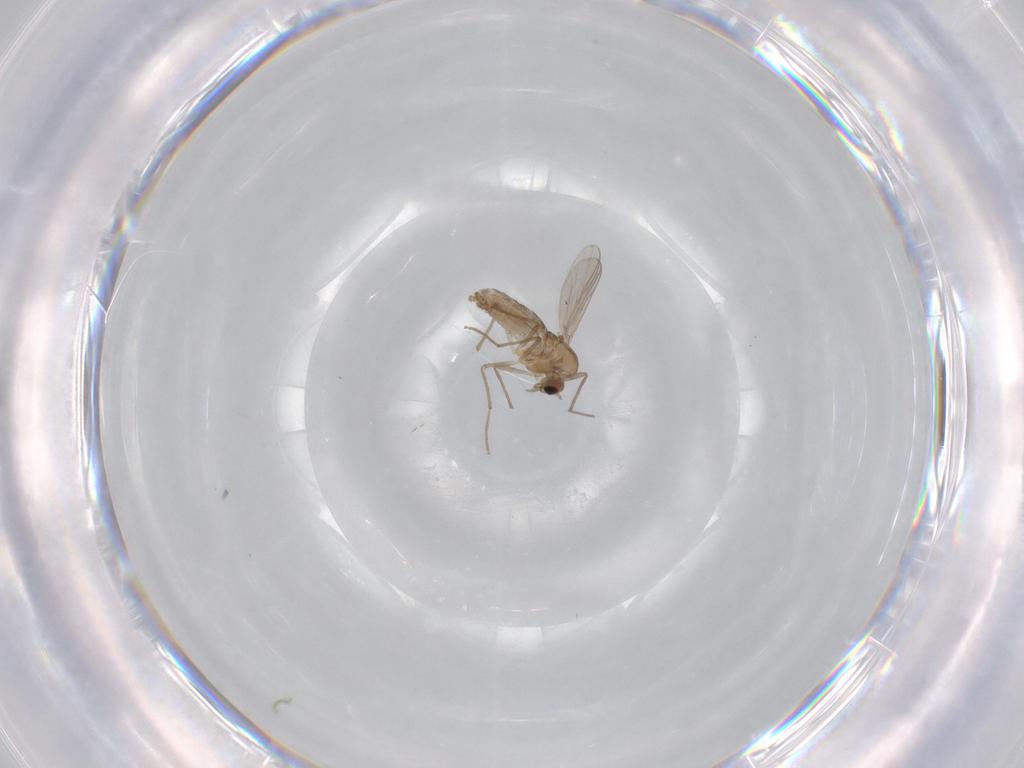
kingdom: Animalia
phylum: Arthropoda
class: Insecta
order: Diptera
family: Chironomidae
